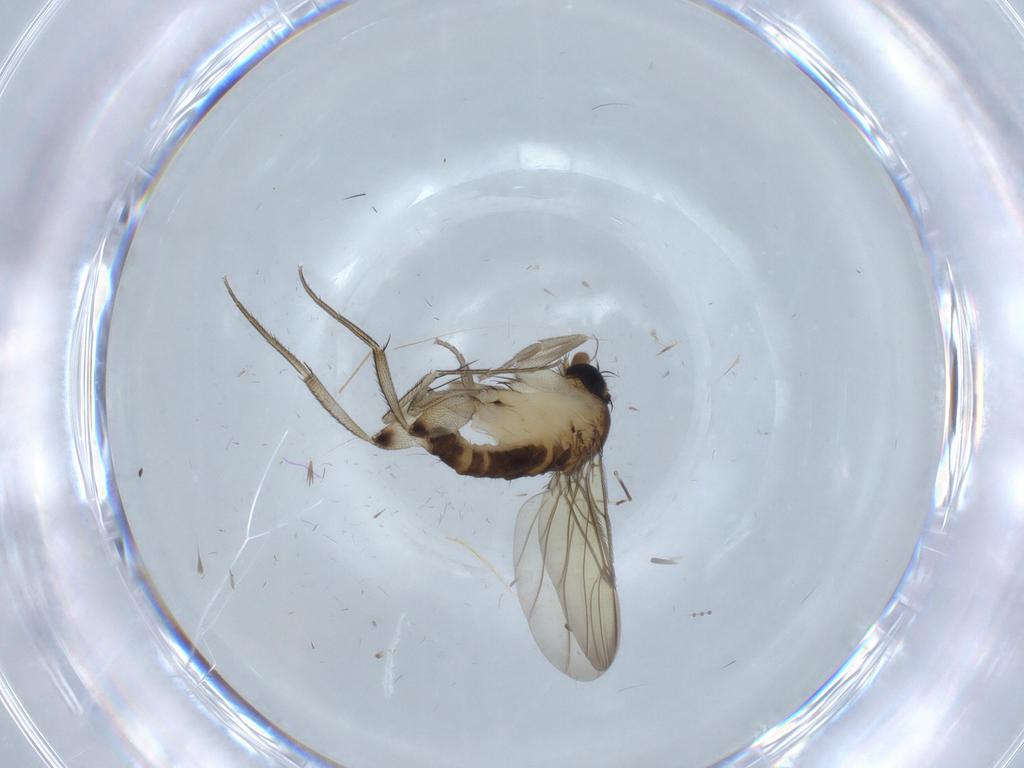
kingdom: Animalia
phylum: Arthropoda
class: Insecta
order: Diptera
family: Phoridae
